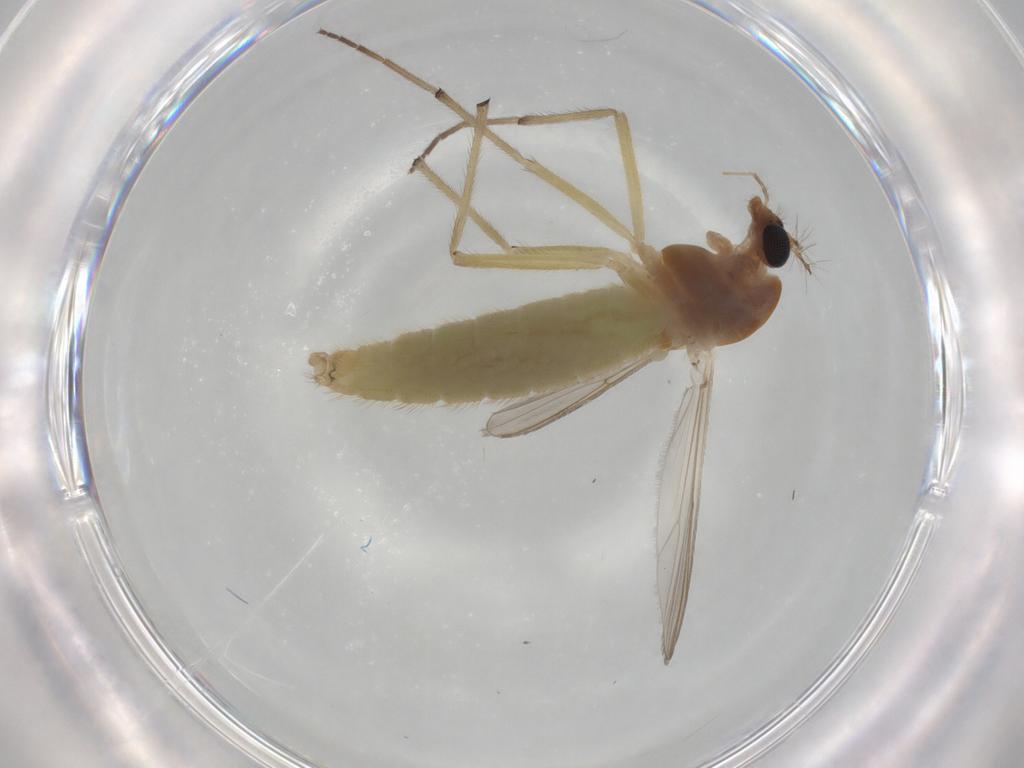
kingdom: Animalia
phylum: Arthropoda
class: Insecta
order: Diptera
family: Chironomidae
